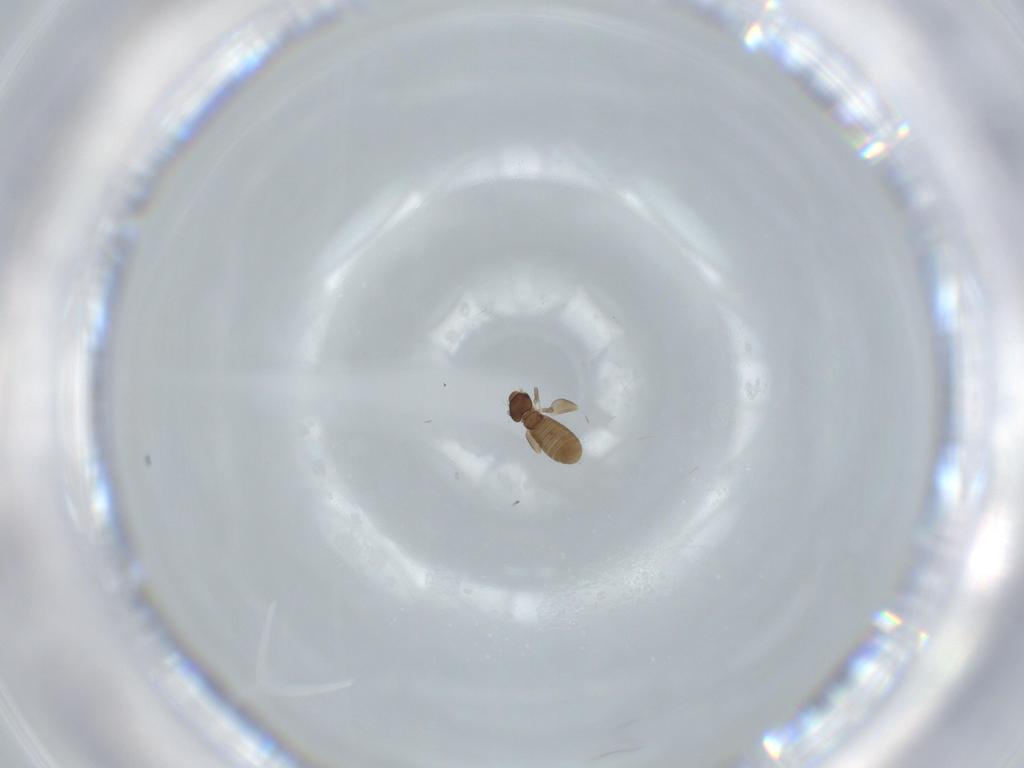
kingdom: Animalia
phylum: Arthropoda
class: Insecta
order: Psocodea
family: Liposcelididae
